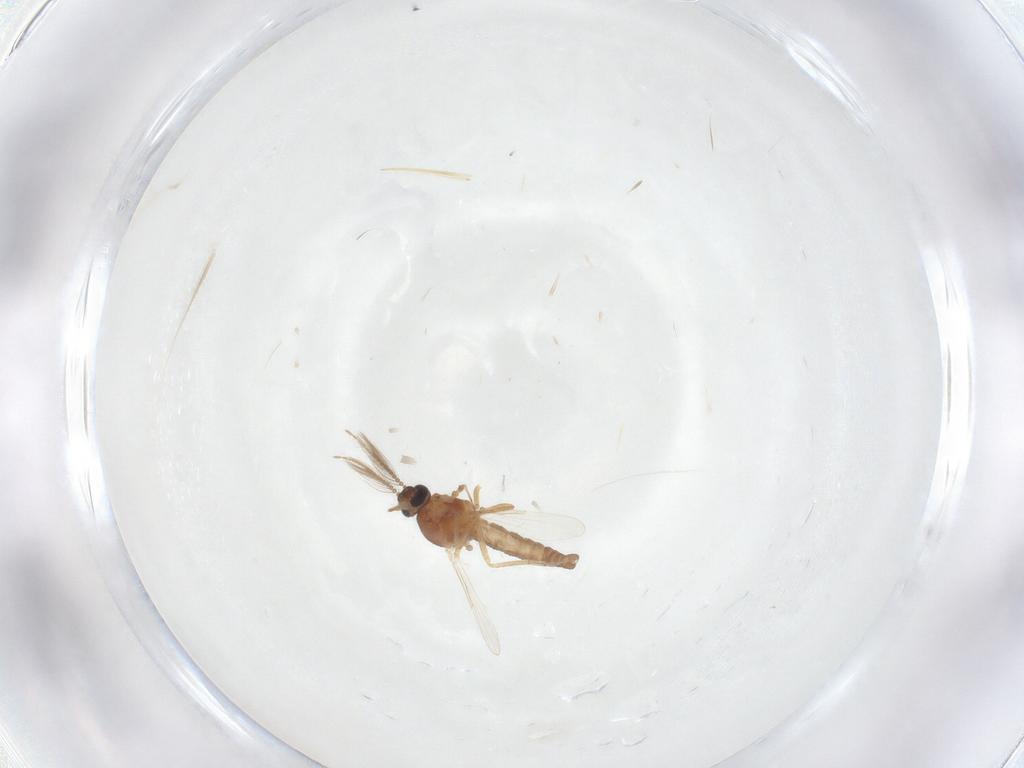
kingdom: Animalia
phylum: Arthropoda
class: Insecta
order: Diptera
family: Ceratopogonidae
